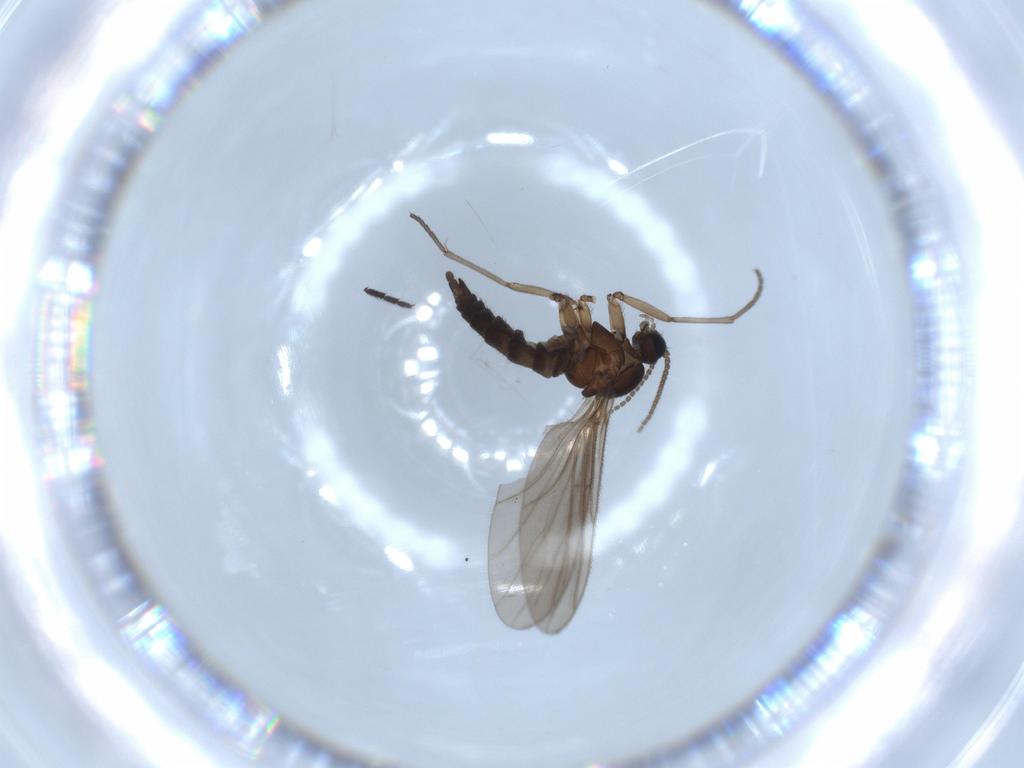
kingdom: Animalia
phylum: Arthropoda
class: Insecta
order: Diptera
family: Sciaridae
